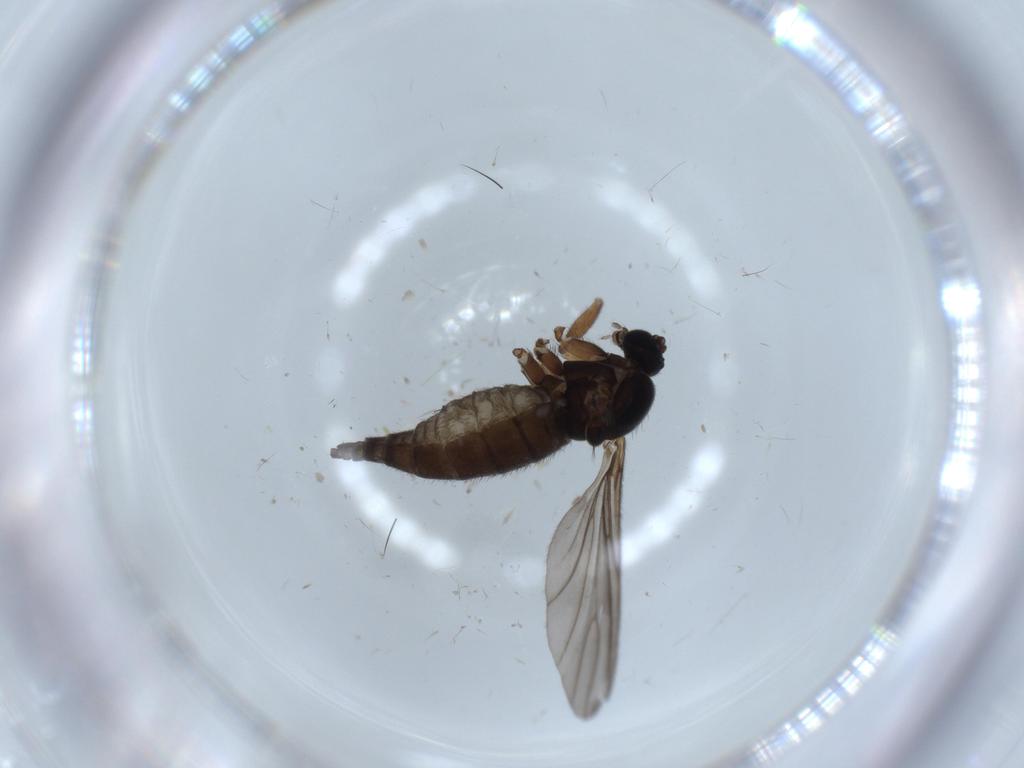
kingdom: Animalia
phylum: Arthropoda
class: Insecta
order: Diptera
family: Sciaridae
